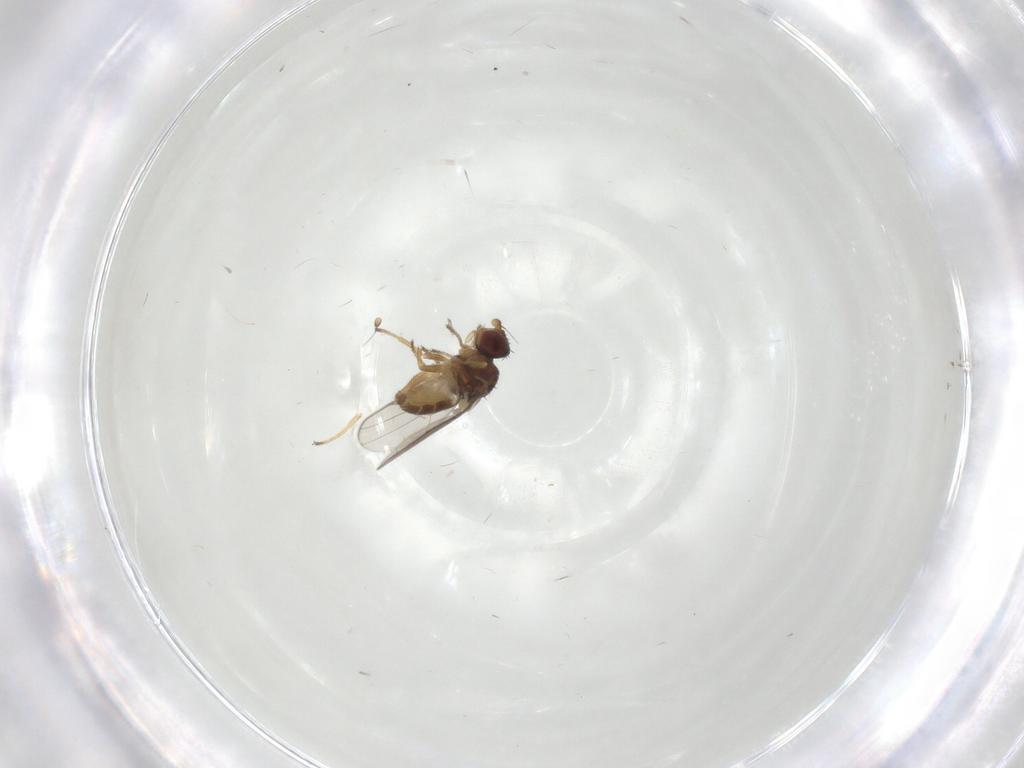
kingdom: Animalia
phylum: Arthropoda
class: Insecta
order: Diptera
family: Chloropidae
